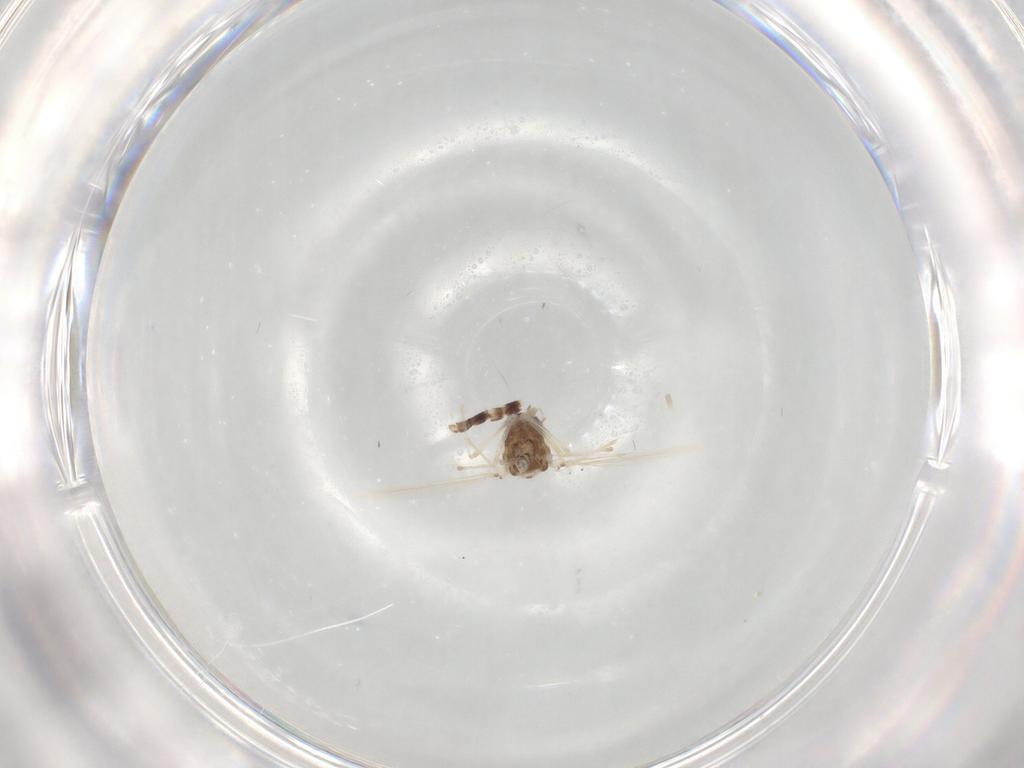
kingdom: Animalia
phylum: Arthropoda
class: Insecta
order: Diptera
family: Chironomidae
